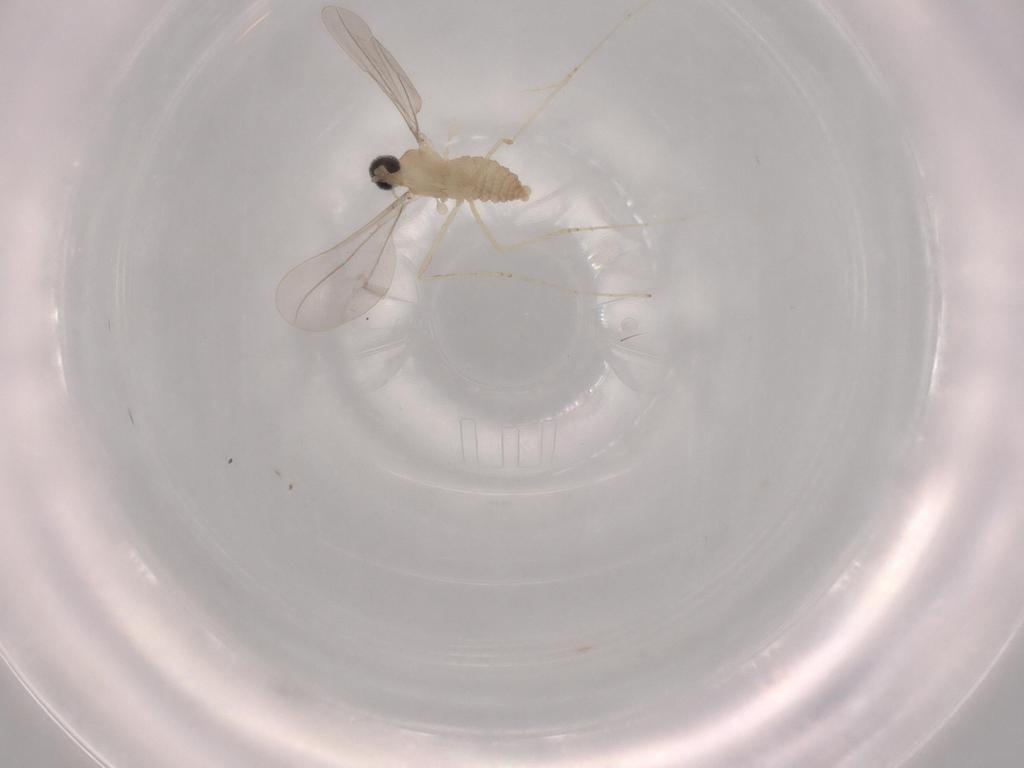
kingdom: Animalia
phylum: Arthropoda
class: Insecta
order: Diptera
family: Cecidomyiidae
